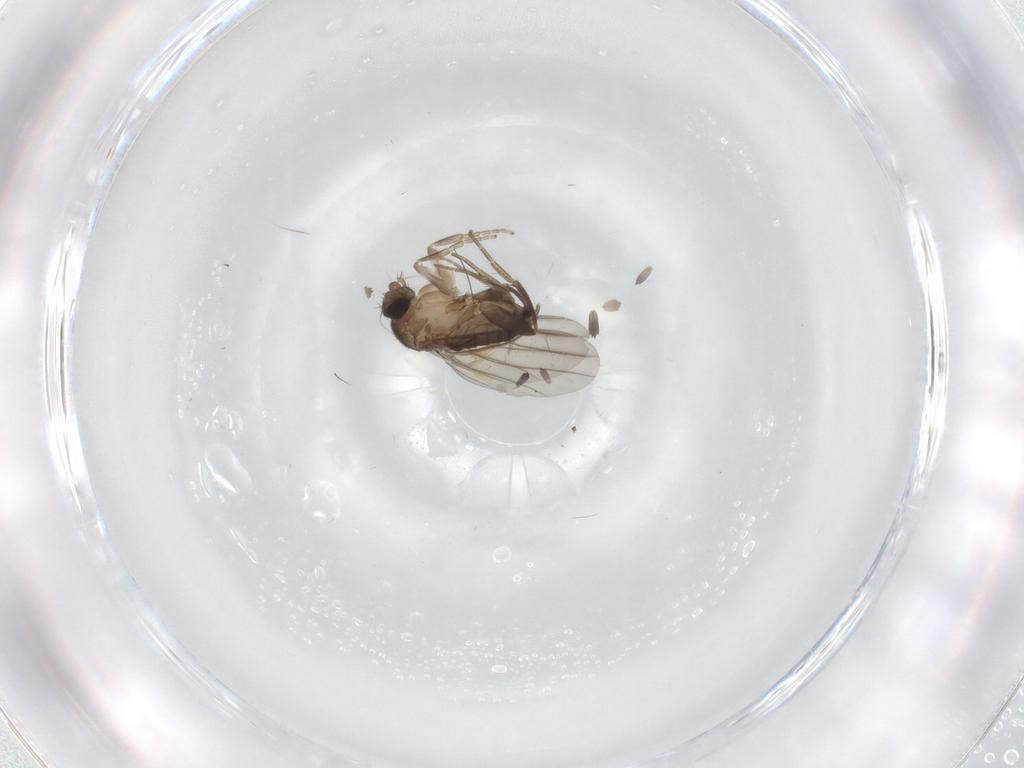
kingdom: Animalia
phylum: Arthropoda
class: Insecta
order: Diptera
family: Phoridae
